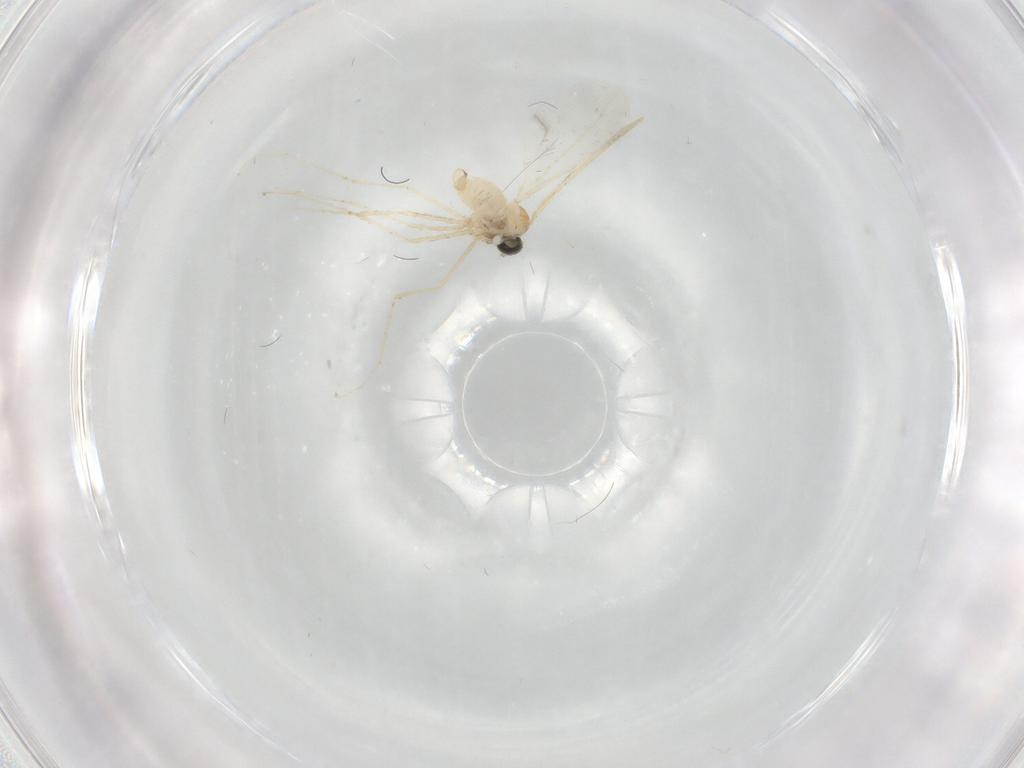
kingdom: Animalia
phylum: Arthropoda
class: Insecta
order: Diptera
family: Cecidomyiidae
